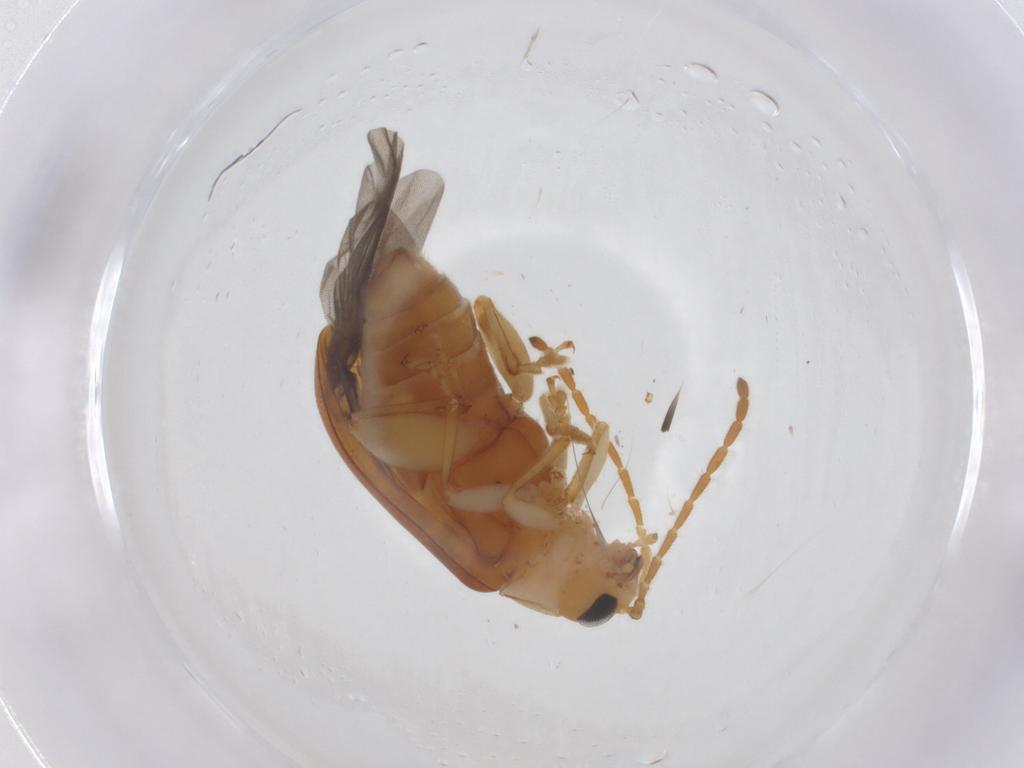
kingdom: Animalia
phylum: Arthropoda
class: Insecta
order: Coleoptera
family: Chrysomelidae
